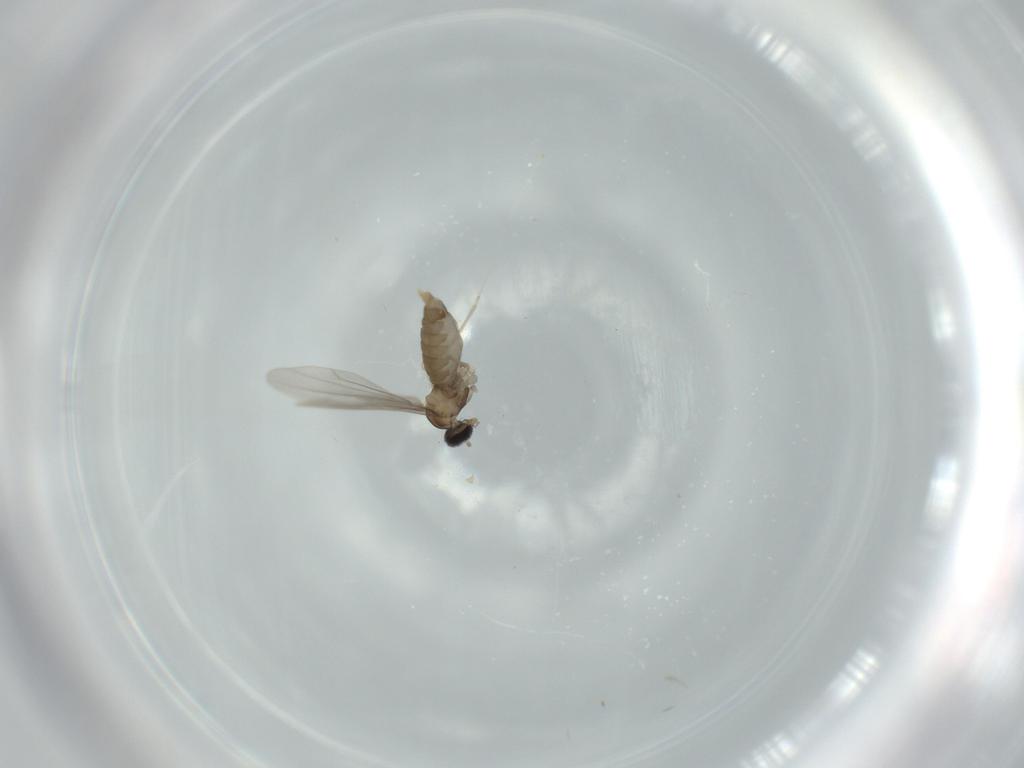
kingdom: Animalia
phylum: Arthropoda
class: Insecta
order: Diptera
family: Cecidomyiidae
